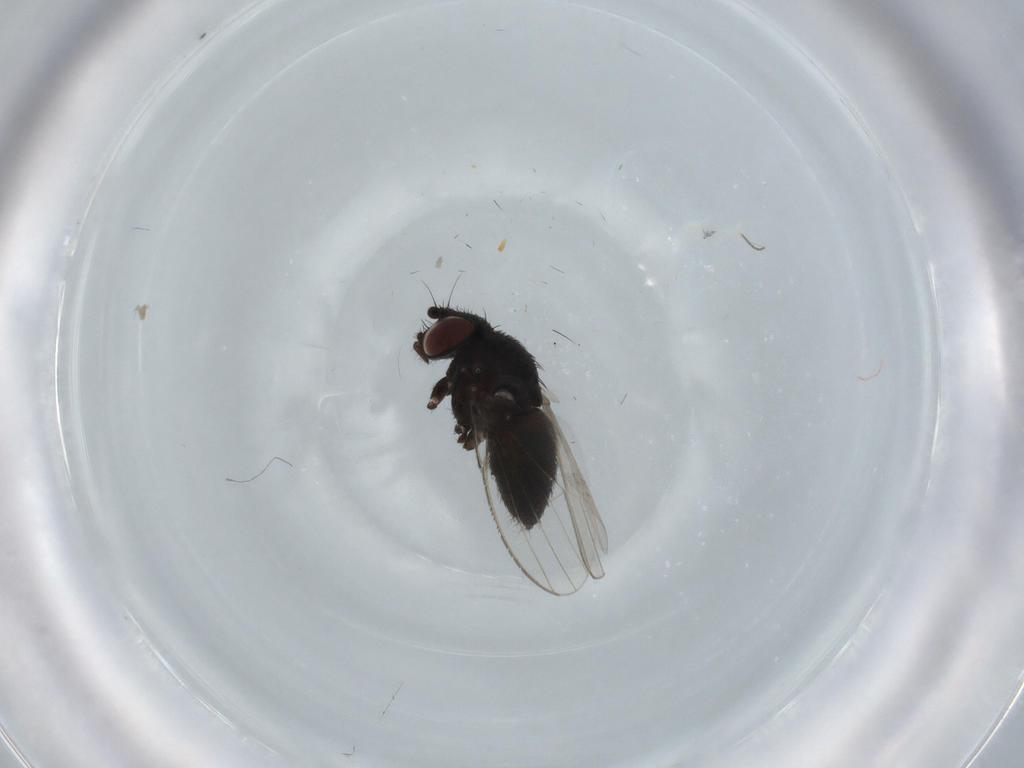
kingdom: Animalia
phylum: Arthropoda
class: Insecta
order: Diptera
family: Milichiidae
